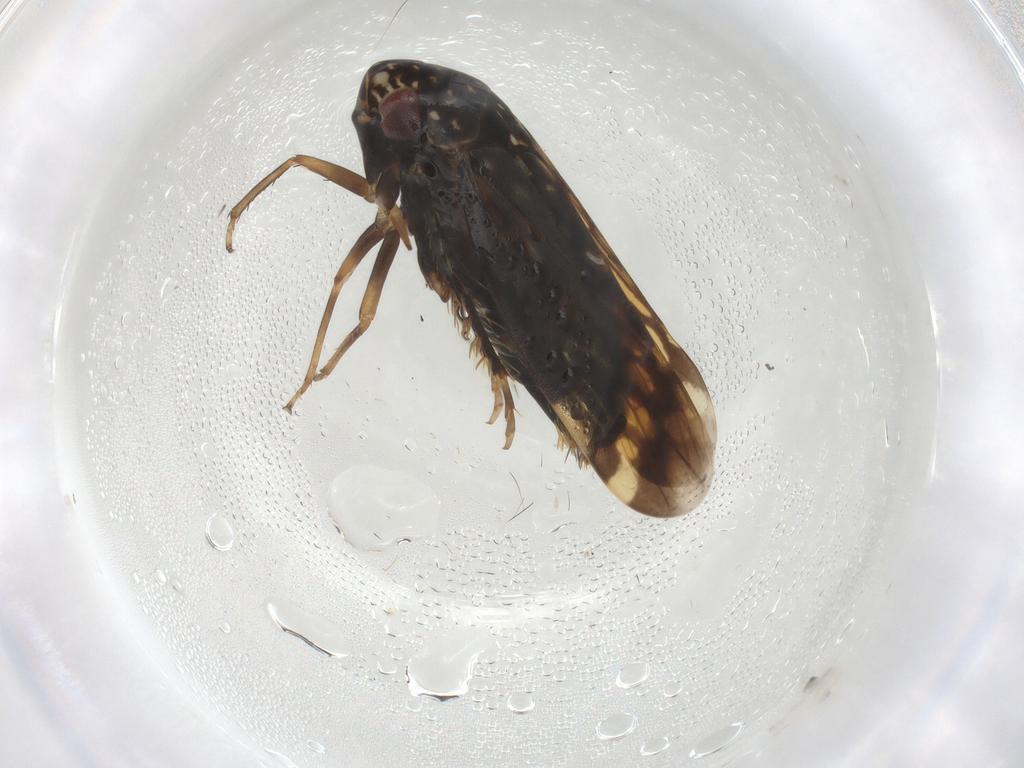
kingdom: Animalia
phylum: Arthropoda
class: Insecta
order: Hemiptera
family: Cicadellidae
